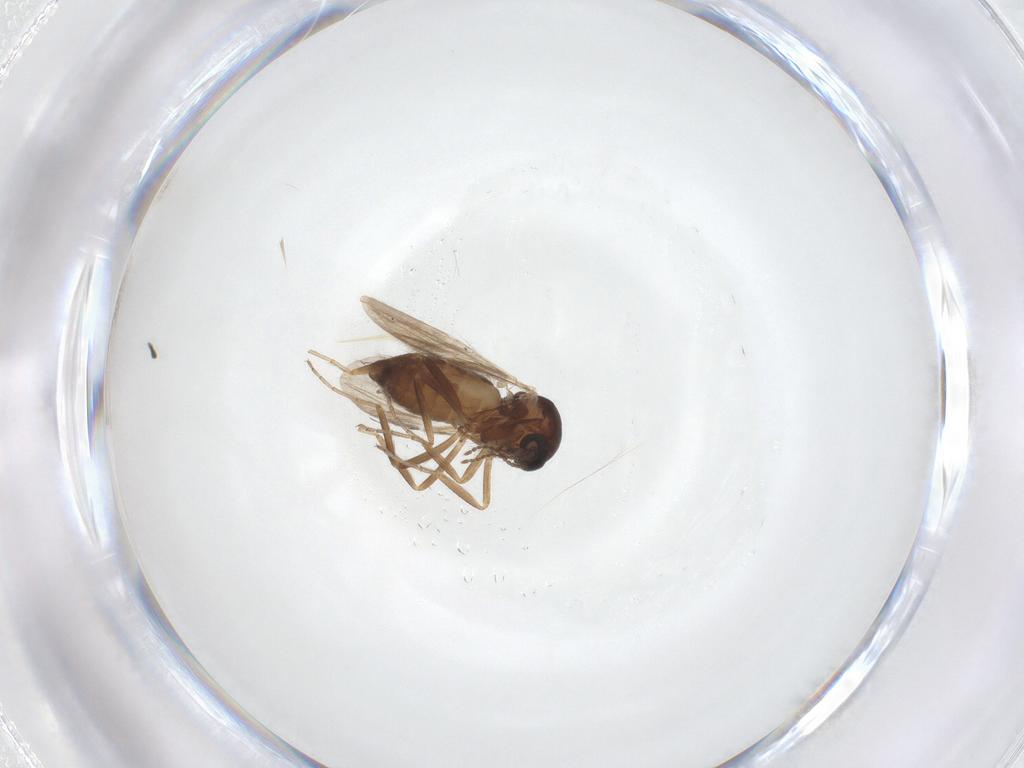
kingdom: Animalia
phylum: Arthropoda
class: Insecta
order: Diptera
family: Ceratopogonidae
